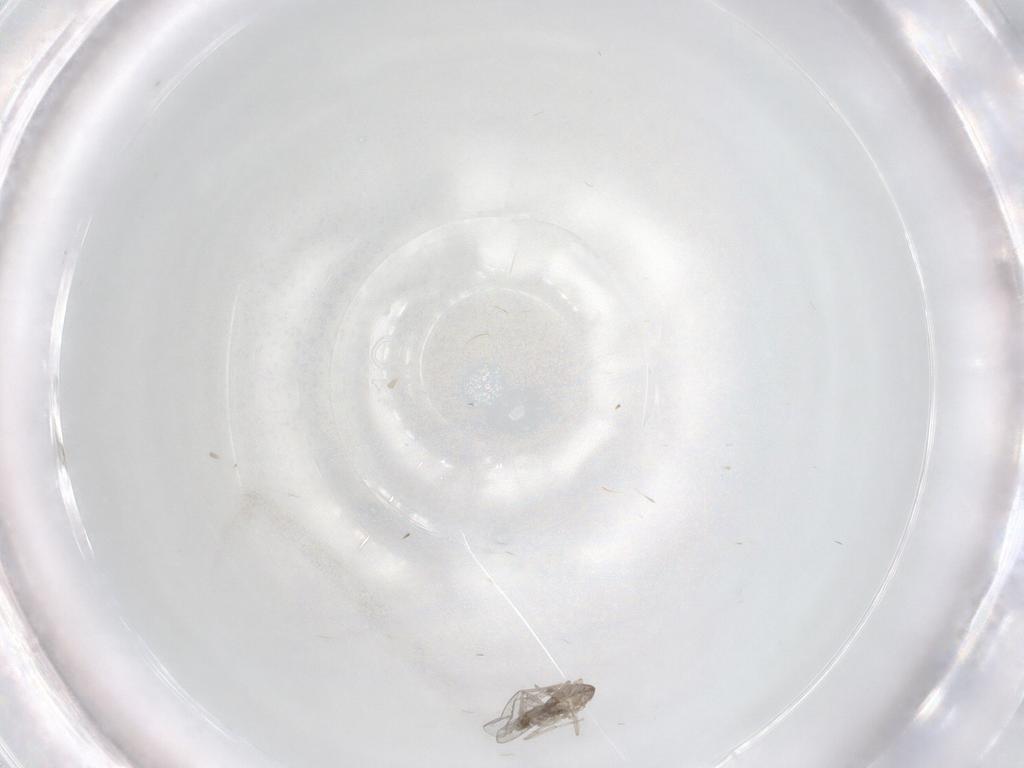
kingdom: Animalia
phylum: Arthropoda
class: Insecta
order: Diptera
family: Cecidomyiidae
